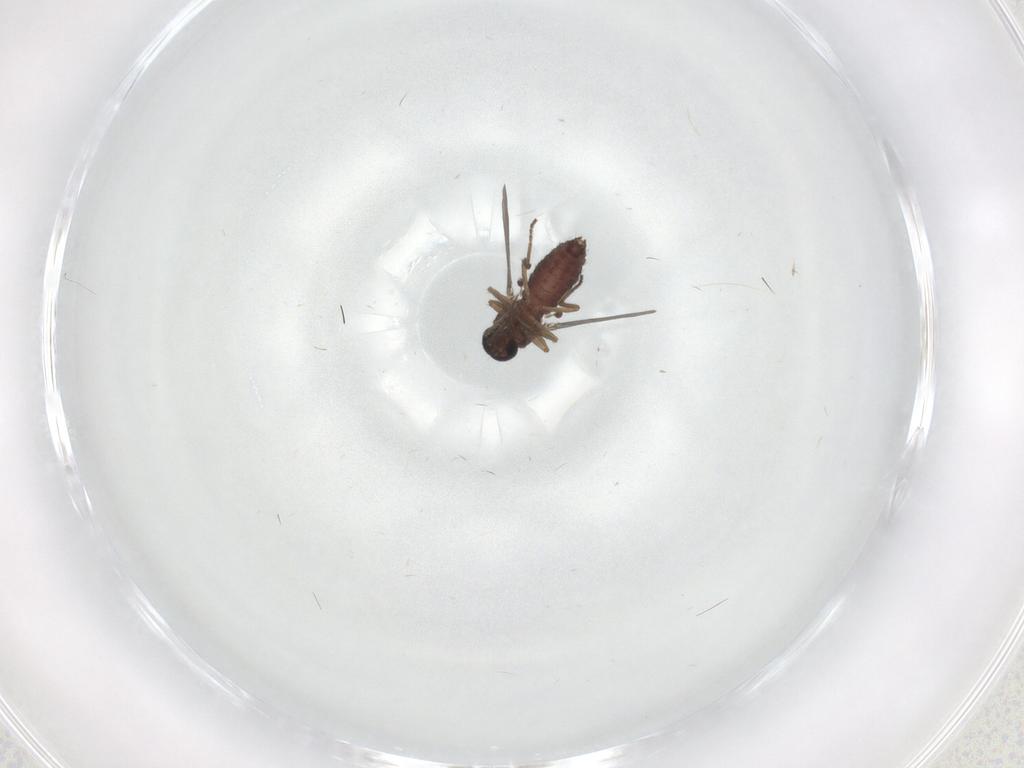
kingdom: Animalia
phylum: Arthropoda
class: Insecta
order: Diptera
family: Ceratopogonidae
